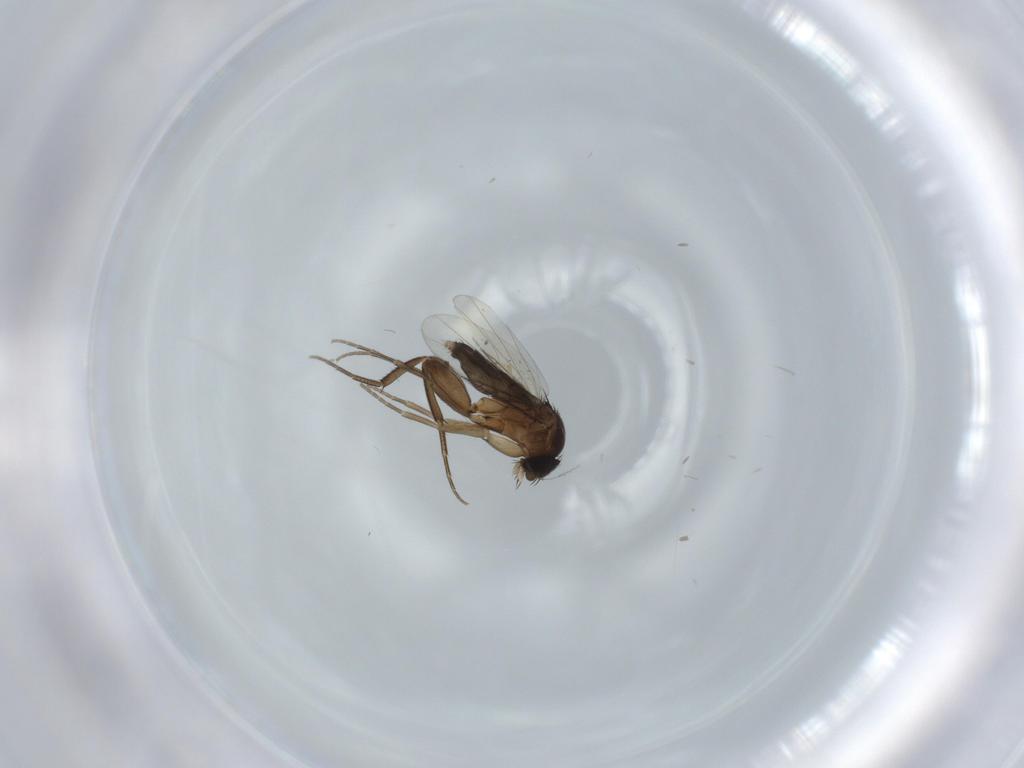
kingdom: Animalia
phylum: Arthropoda
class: Insecta
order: Diptera
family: Phoridae
